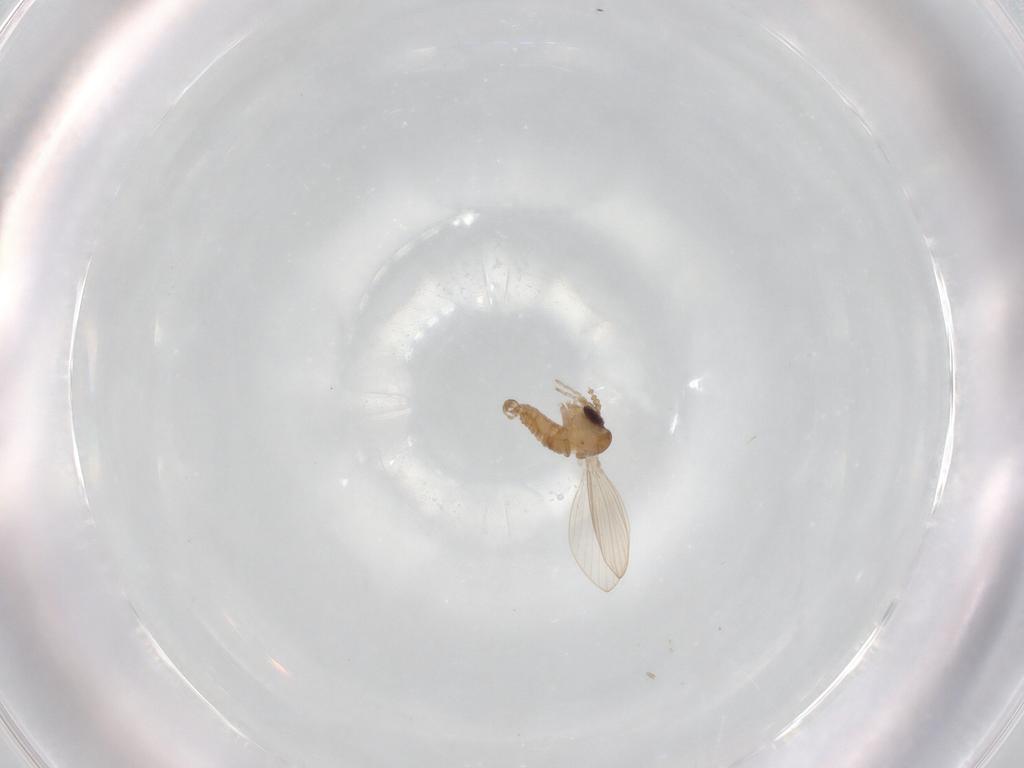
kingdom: Animalia
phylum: Arthropoda
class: Insecta
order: Diptera
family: Psychodidae
